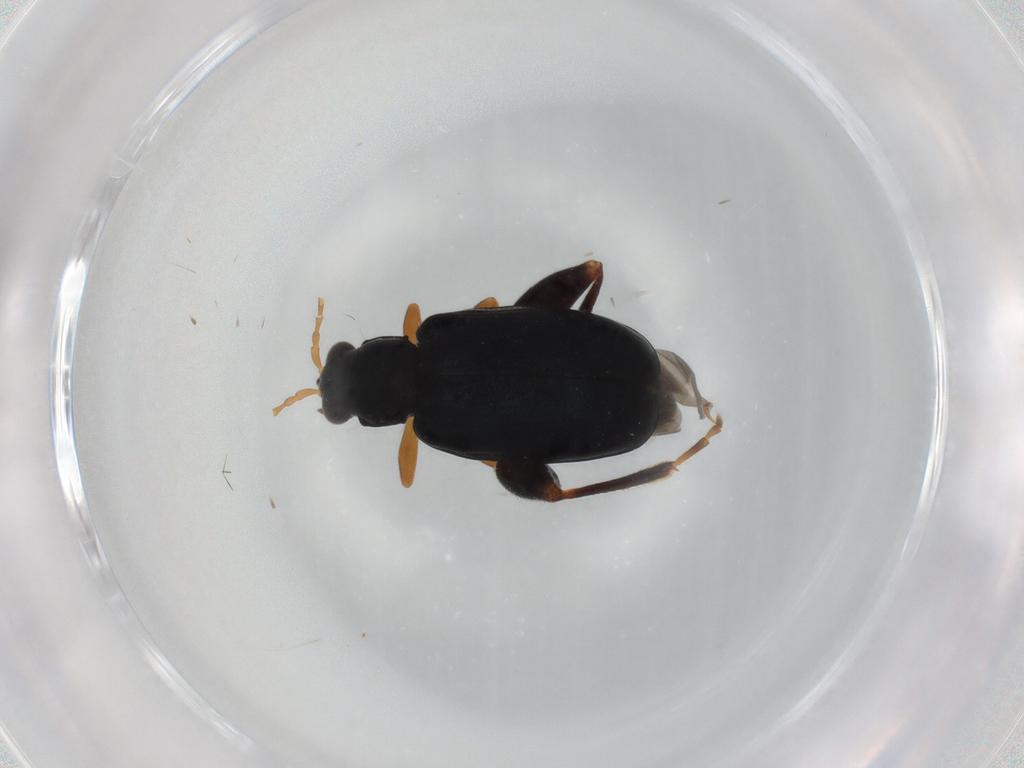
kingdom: Animalia
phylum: Arthropoda
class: Insecta
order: Coleoptera
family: Chrysomelidae
